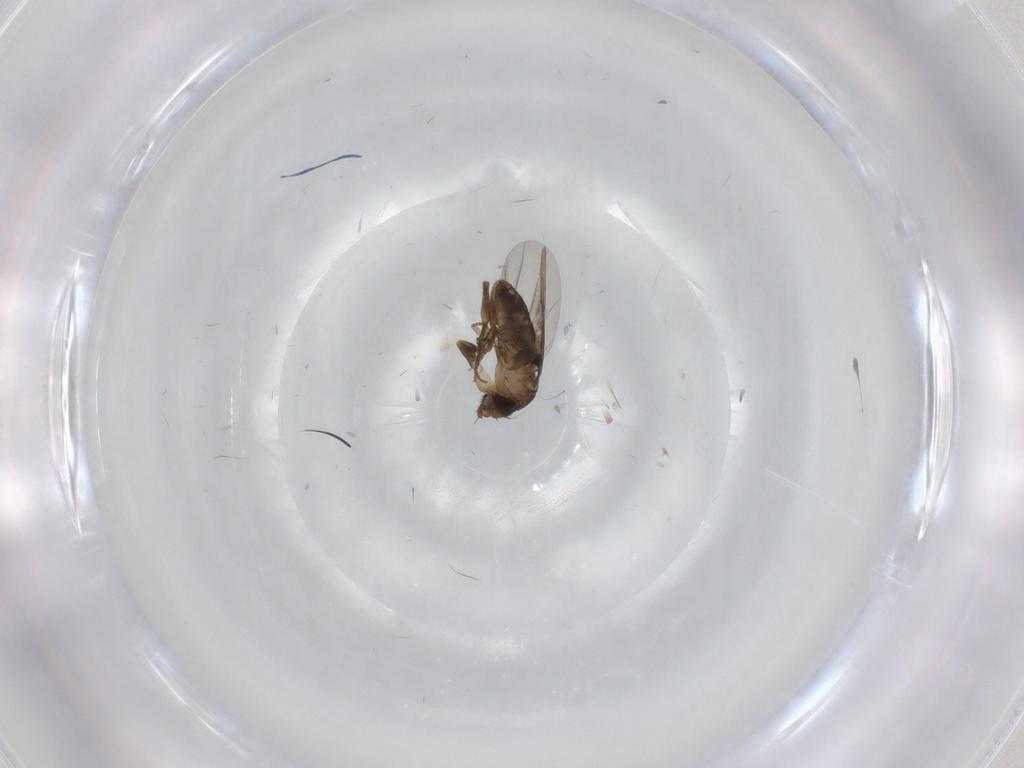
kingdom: Animalia
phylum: Arthropoda
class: Insecta
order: Diptera
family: Phoridae
